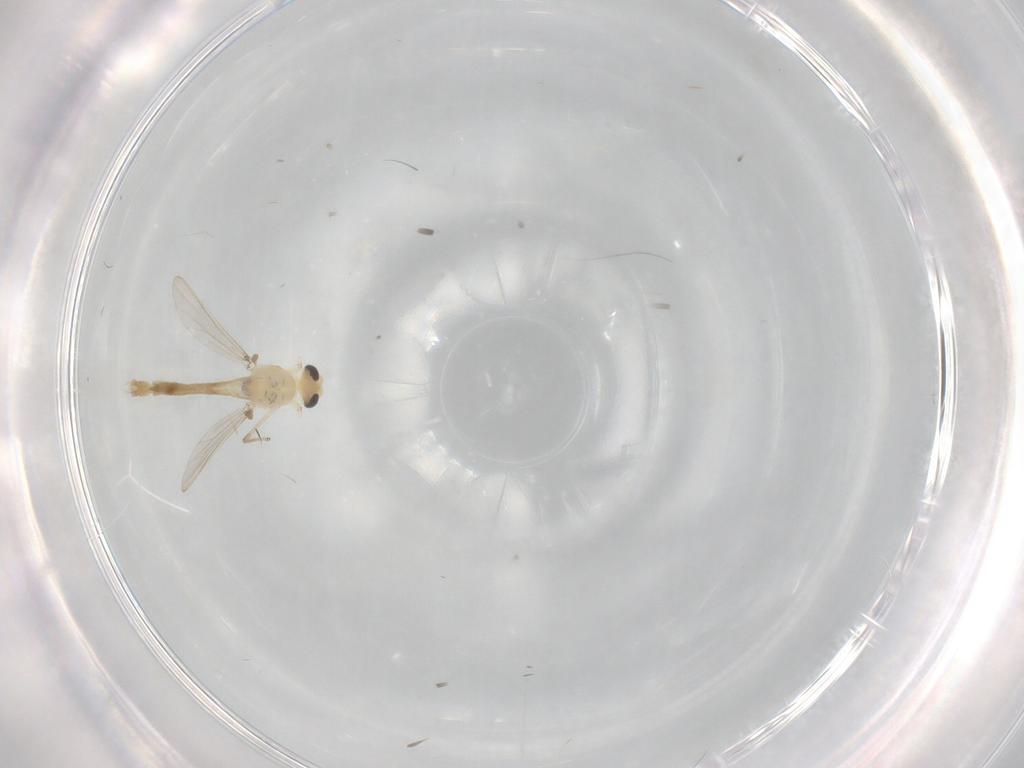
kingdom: Animalia
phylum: Arthropoda
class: Insecta
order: Diptera
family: Chironomidae
